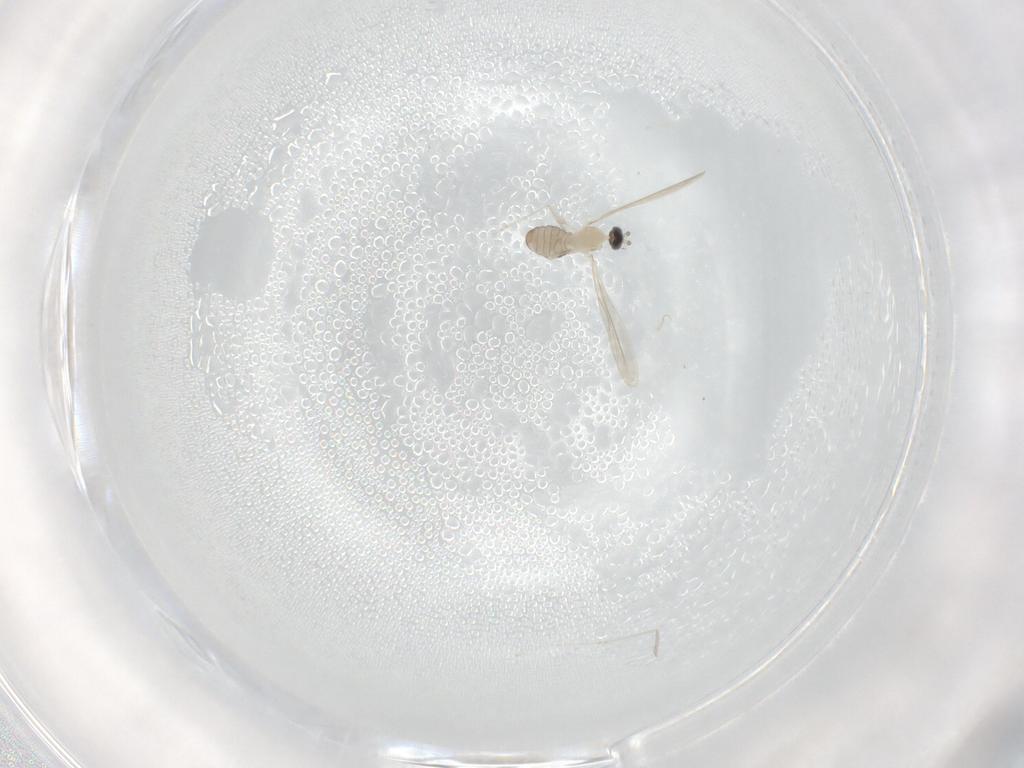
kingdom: Animalia
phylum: Arthropoda
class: Insecta
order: Diptera
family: Cecidomyiidae
